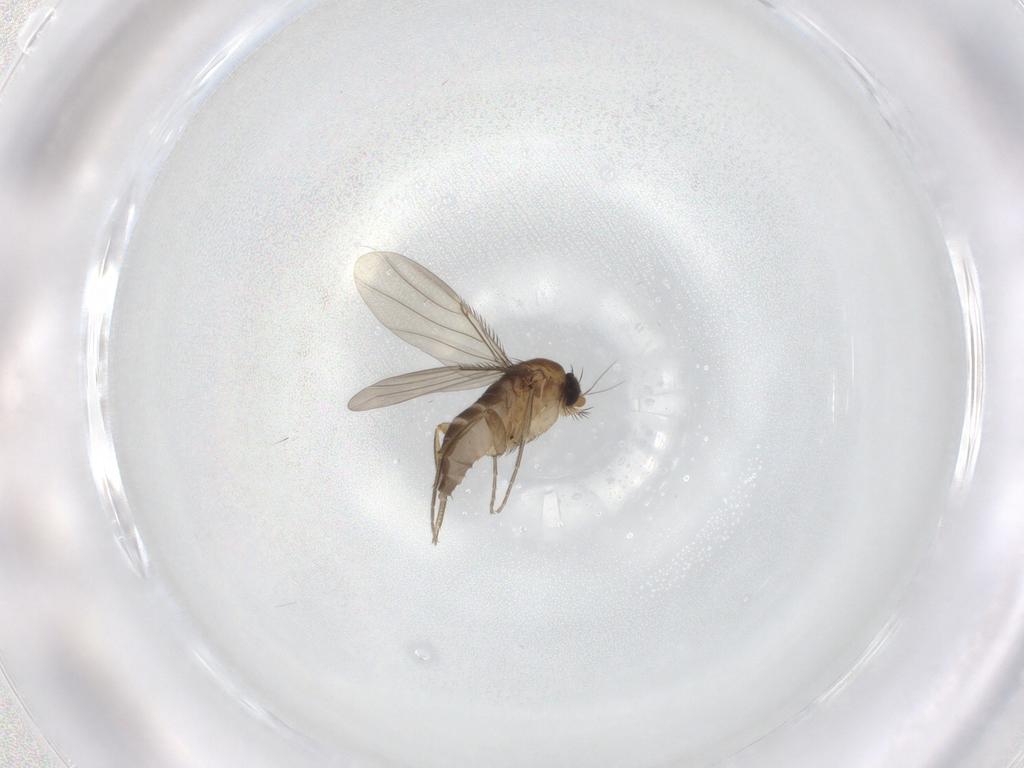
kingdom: Animalia
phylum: Arthropoda
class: Insecta
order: Diptera
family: Phoridae
